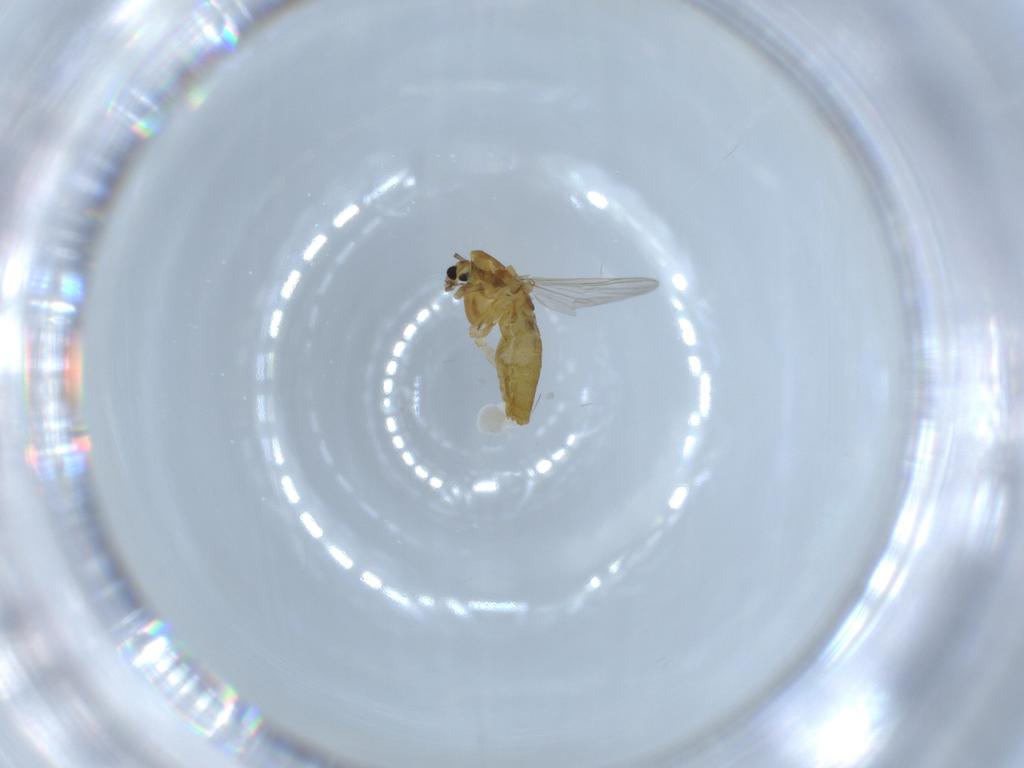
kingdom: Animalia
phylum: Arthropoda
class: Insecta
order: Diptera
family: Chironomidae
